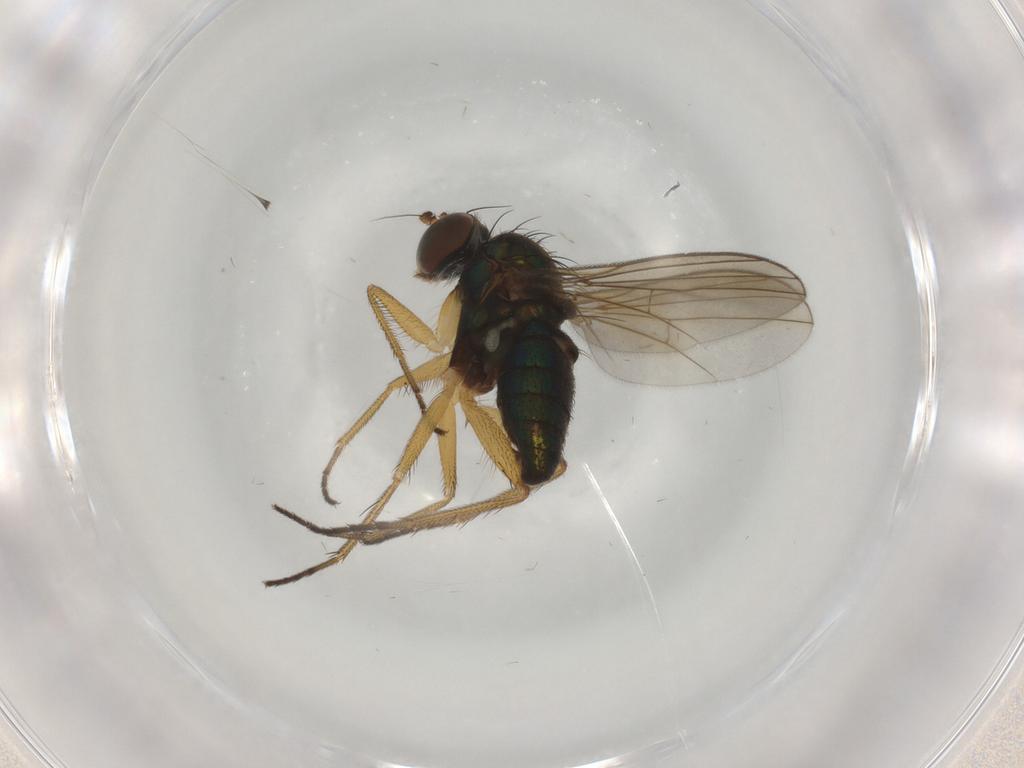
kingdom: Animalia
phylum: Arthropoda
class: Insecta
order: Diptera
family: Dolichopodidae
